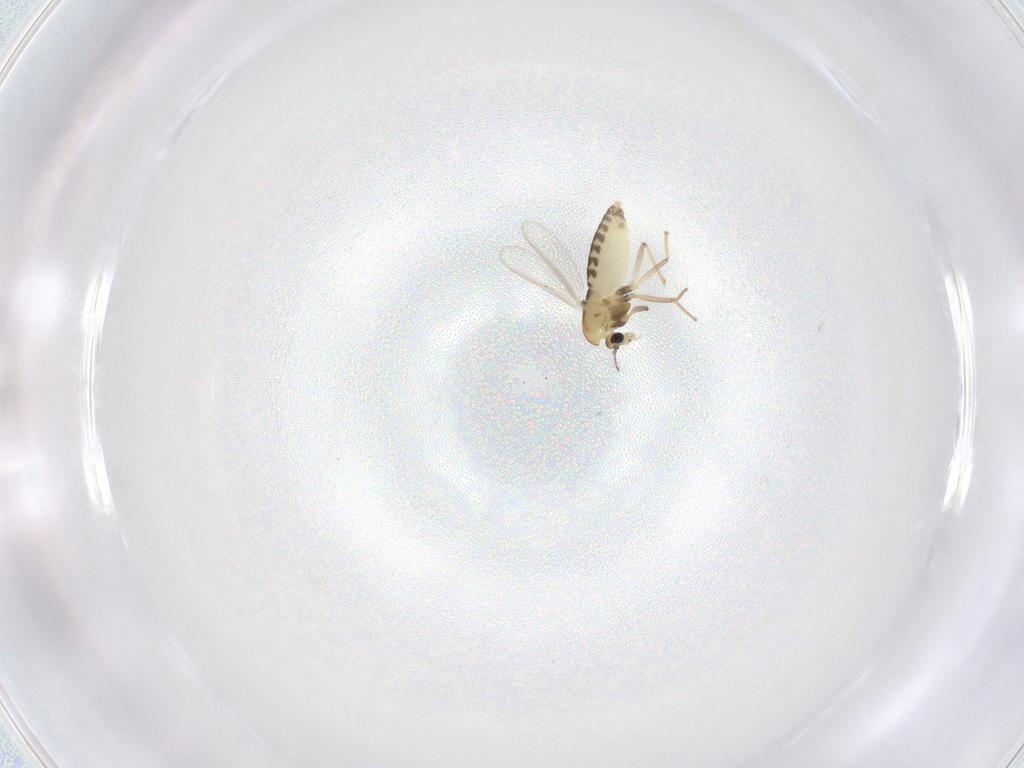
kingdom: Animalia
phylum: Arthropoda
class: Insecta
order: Diptera
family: Chironomidae
